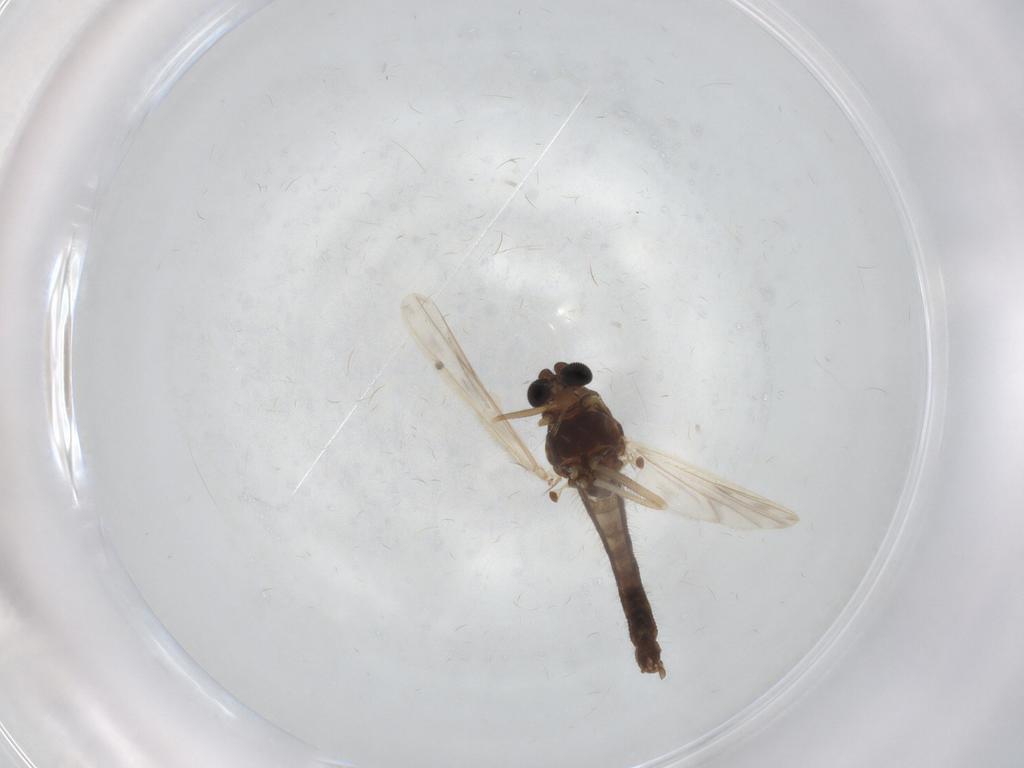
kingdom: Animalia
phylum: Arthropoda
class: Insecta
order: Diptera
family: Chironomidae
